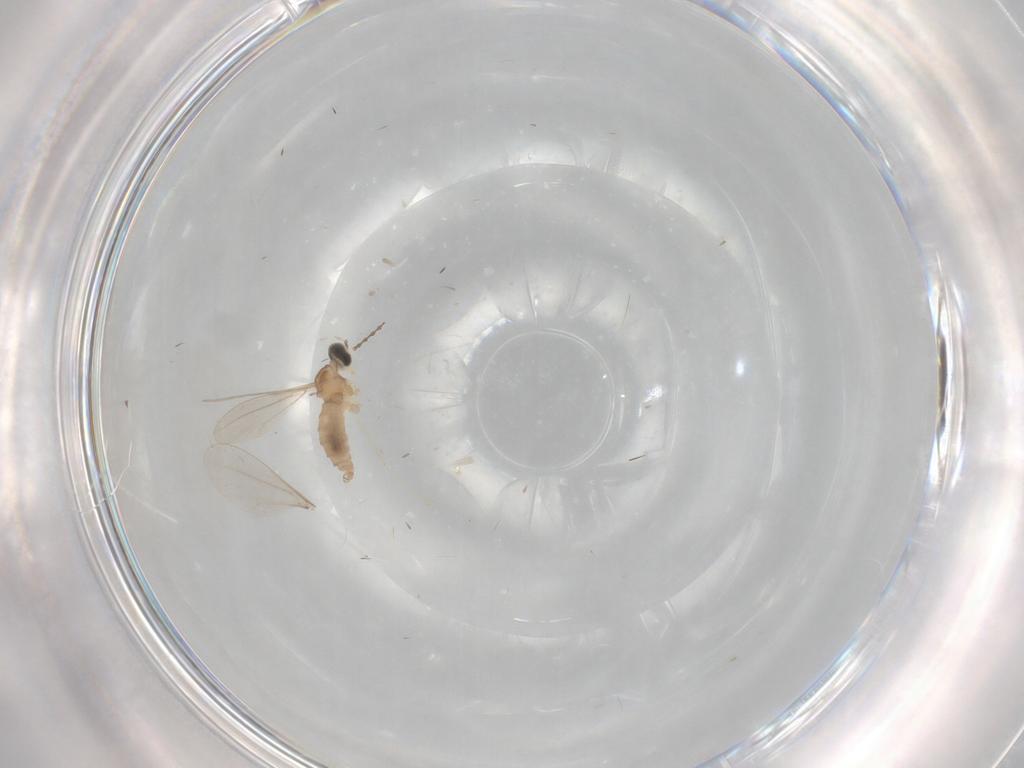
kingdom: Animalia
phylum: Arthropoda
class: Insecta
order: Diptera
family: Cecidomyiidae
